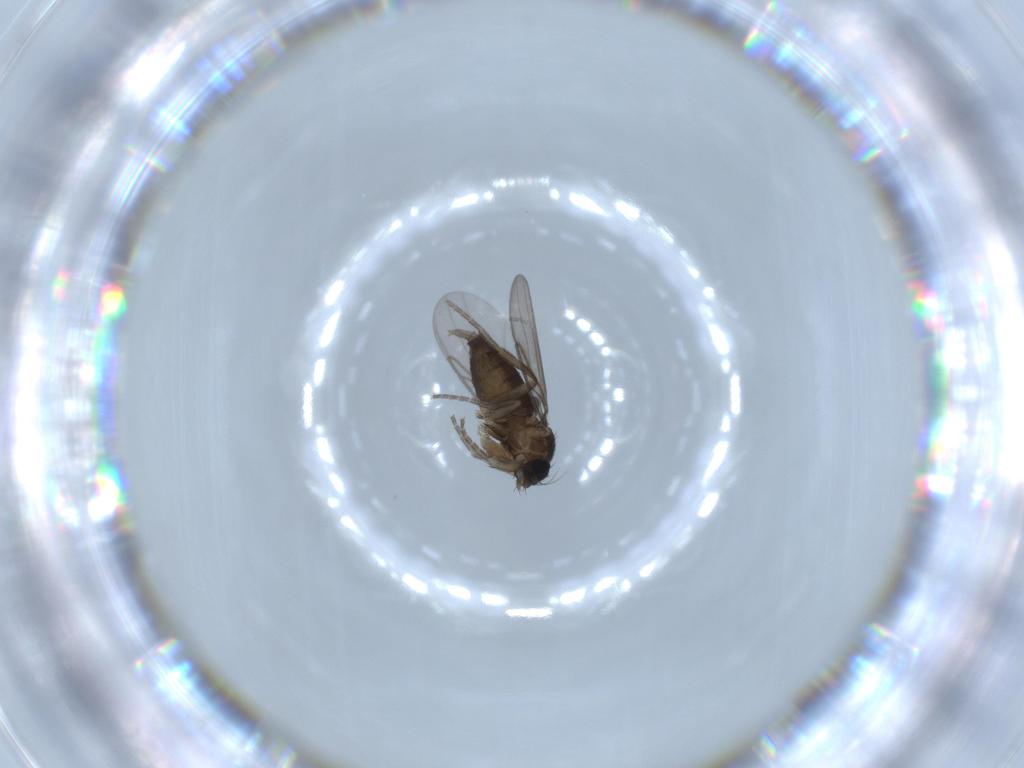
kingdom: Animalia
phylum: Arthropoda
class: Insecta
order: Diptera
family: Phoridae
